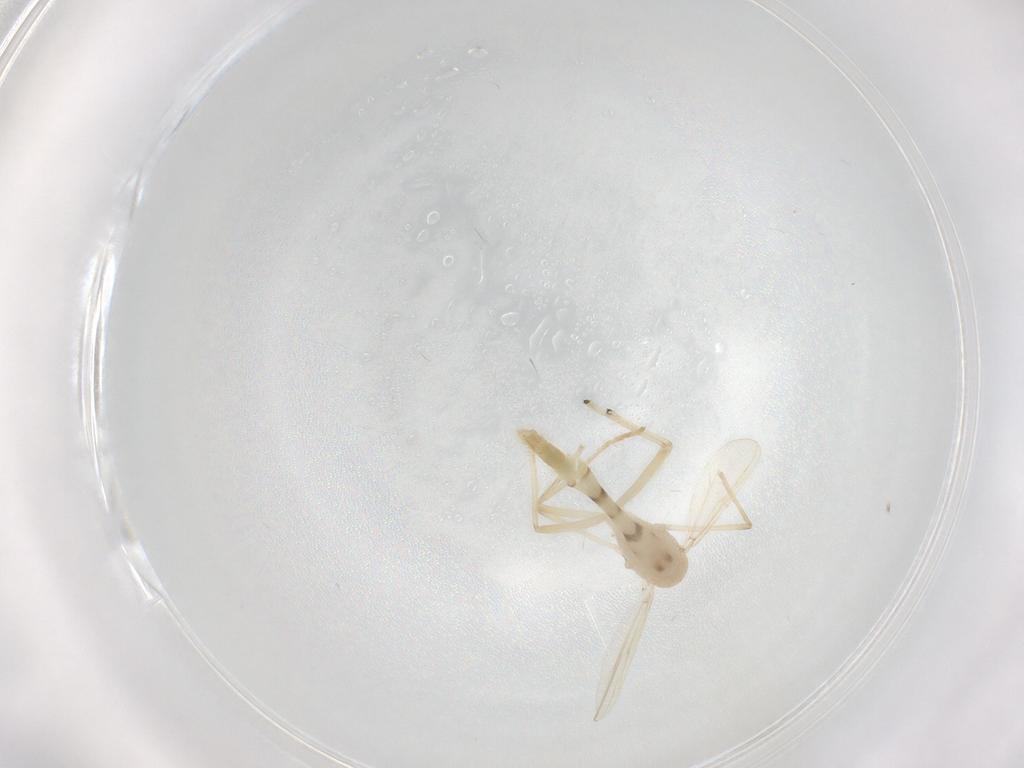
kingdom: Animalia
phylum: Arthropoda
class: Insecta
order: Diptera
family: Chironomidae
